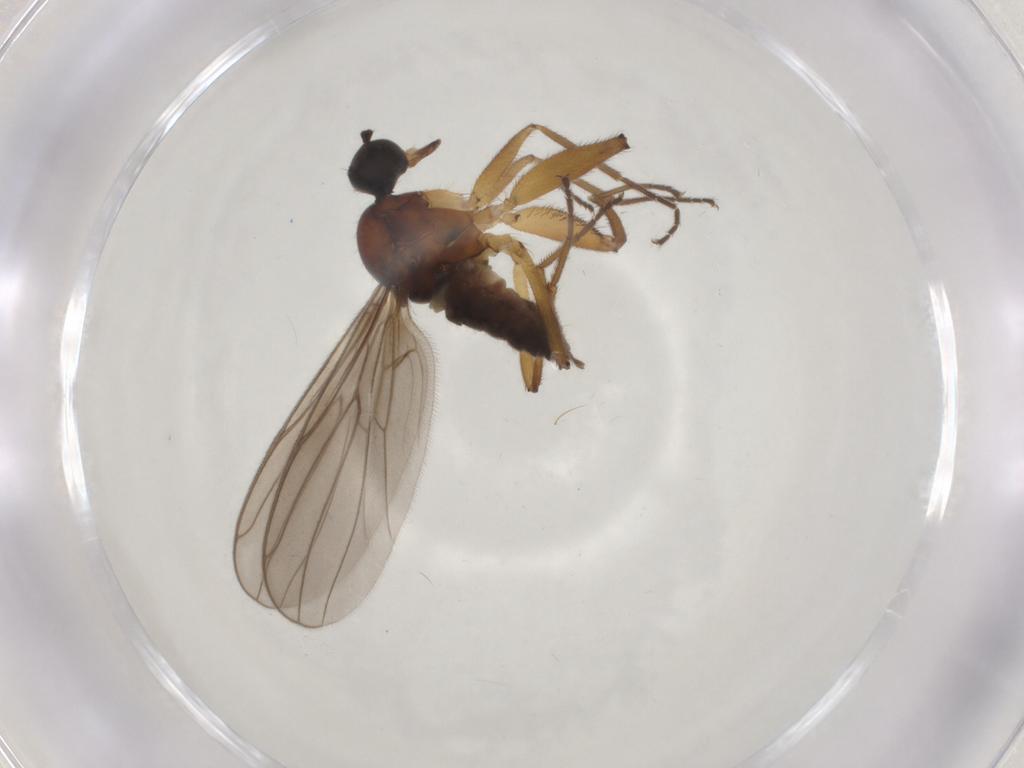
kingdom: Animalia
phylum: Arthropoda
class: Insecta
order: Diptera
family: Hybotidae
